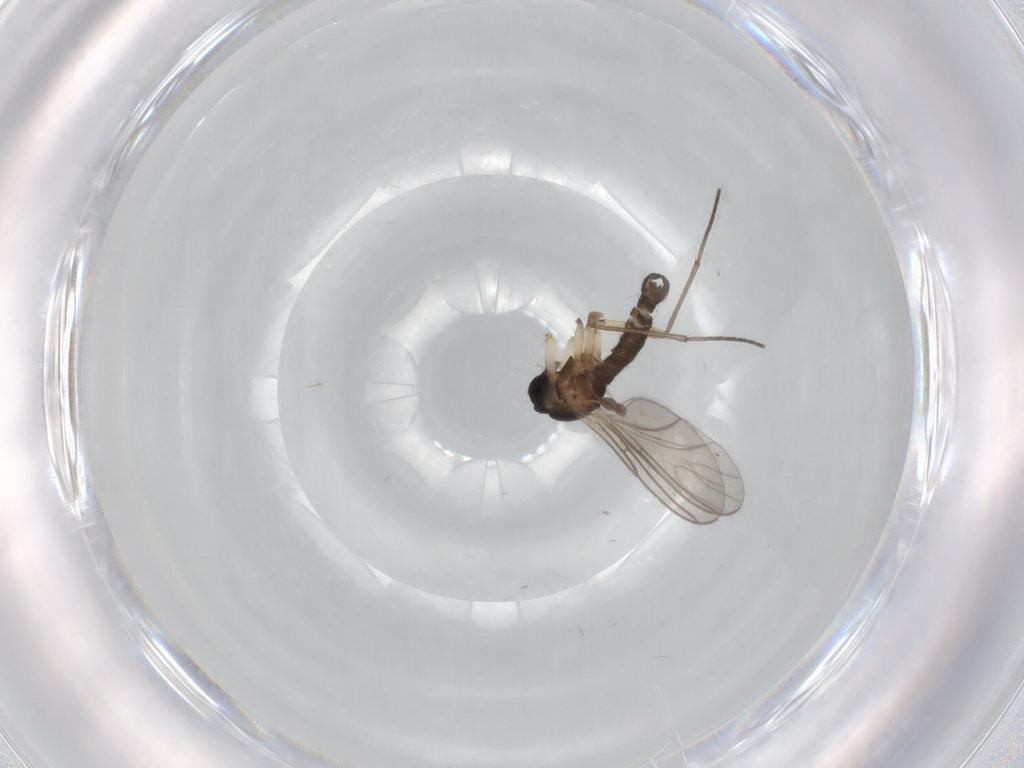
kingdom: Animalia
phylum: Arthropoda
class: Insecta
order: Diptera
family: Sciaridae
